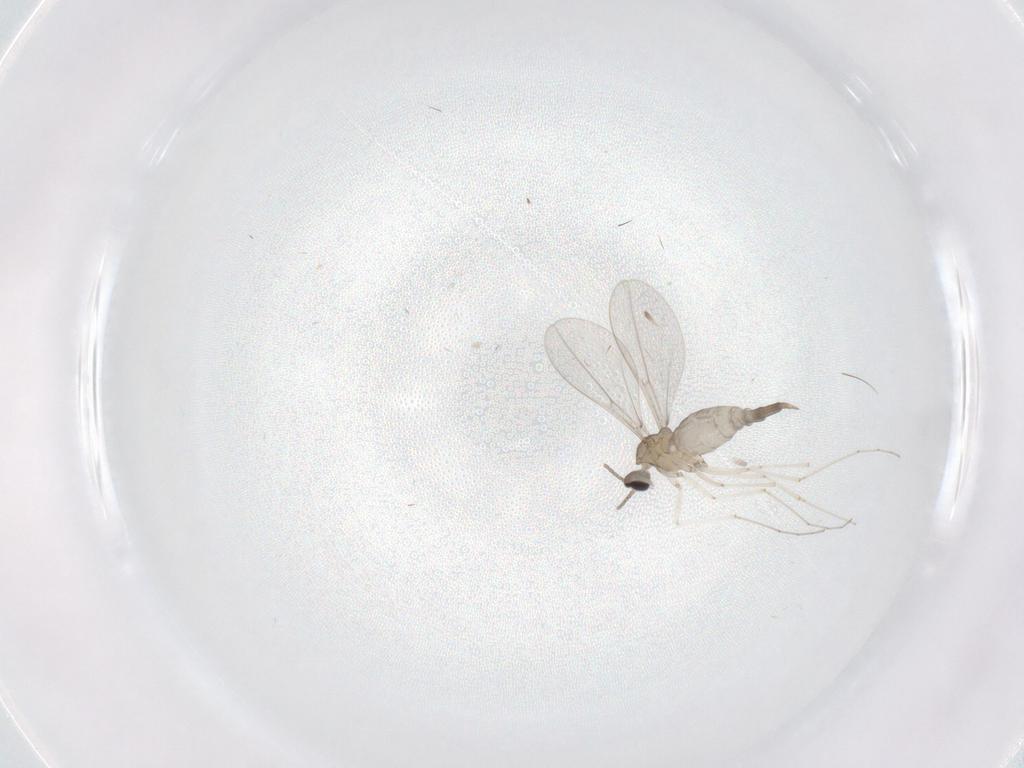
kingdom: Animalia
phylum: Arthropoda
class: Insecta
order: Diptera
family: Cecidomyiidae
